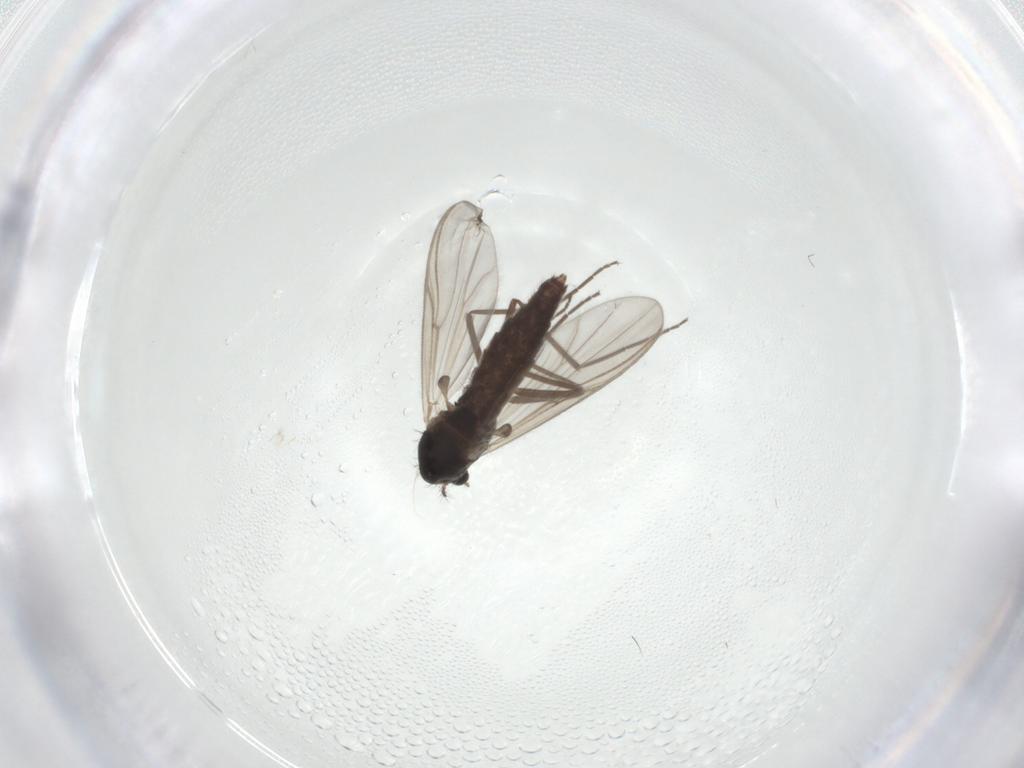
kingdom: Animalia
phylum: Arthropoda
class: Insecta
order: Diptera
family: Chironomidae
